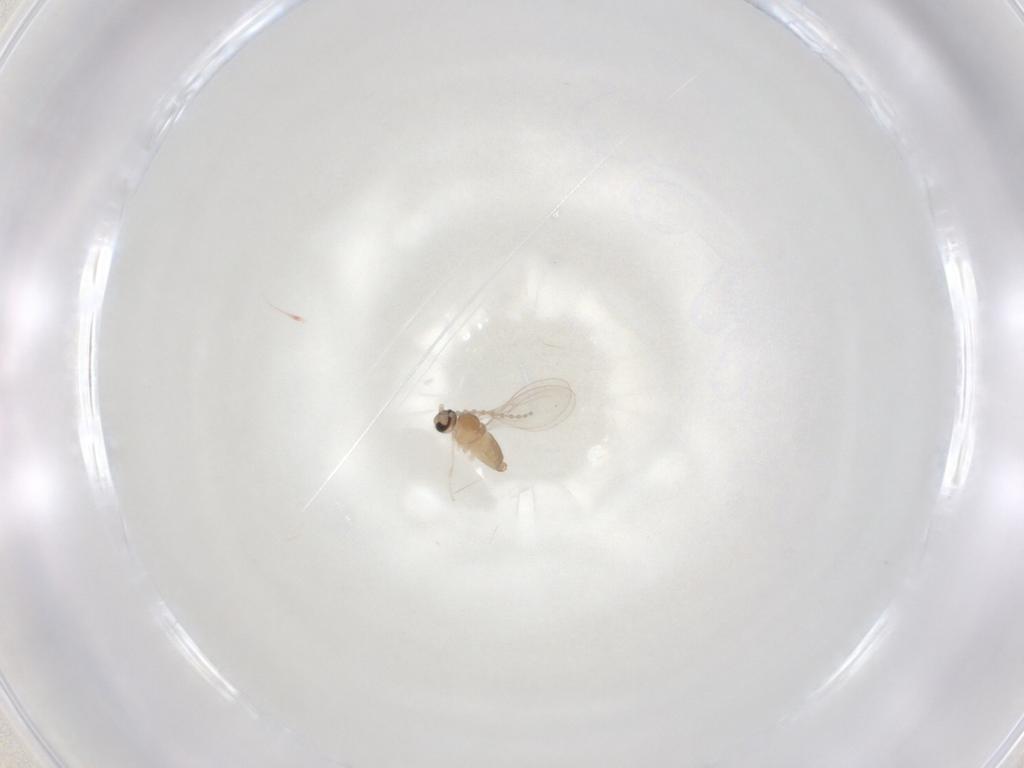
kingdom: Animalia
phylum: Arthropoda
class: Insecta
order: Diptera
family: Cecidomyiidae
